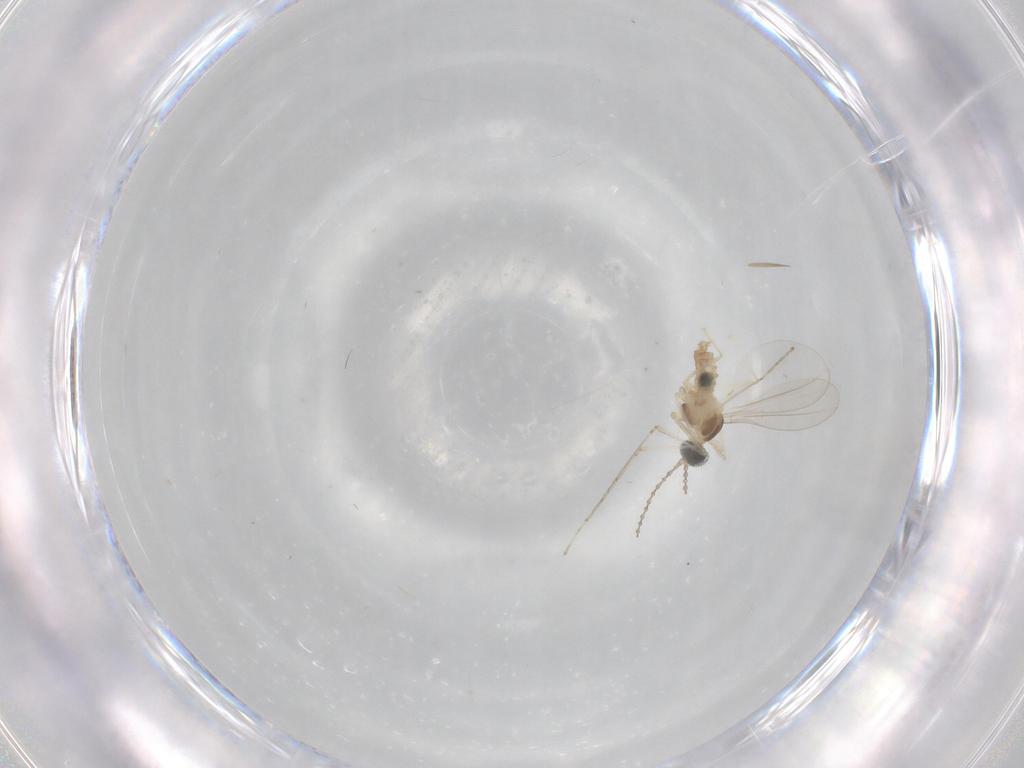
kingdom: Animalia
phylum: Arthropoda
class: Insecta
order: Diptera
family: Cecidomyiidae
